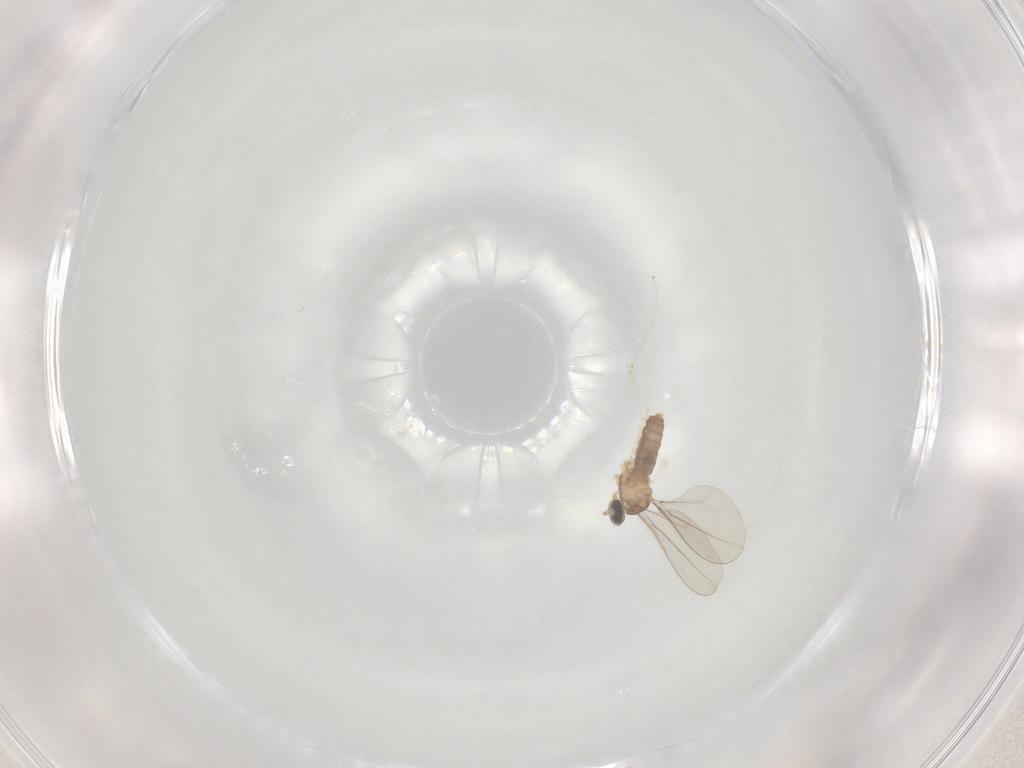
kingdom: Animalia
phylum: Arthropoda
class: Insecta
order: Diptera
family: Cecidomyiidae
